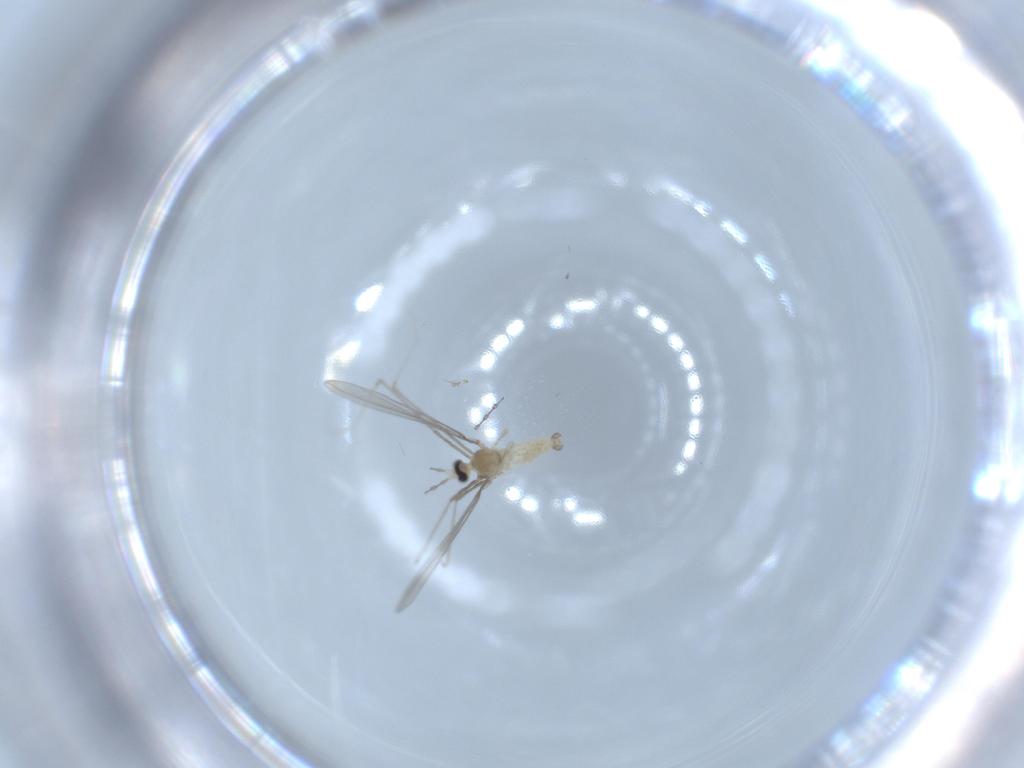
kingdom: Animalia
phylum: Arthropoda
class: Insecta
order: Diptera
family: Cecidomyiidae
